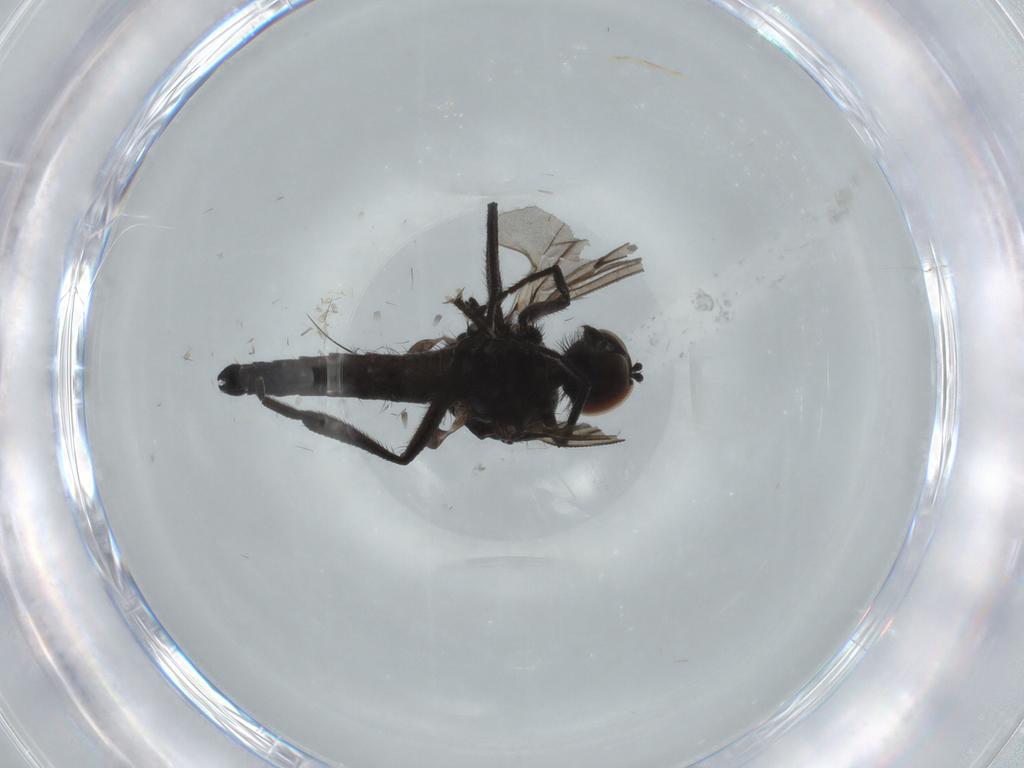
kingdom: Animalia
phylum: Arthropoda
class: Insecta
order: Diptera
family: Hybotidae
